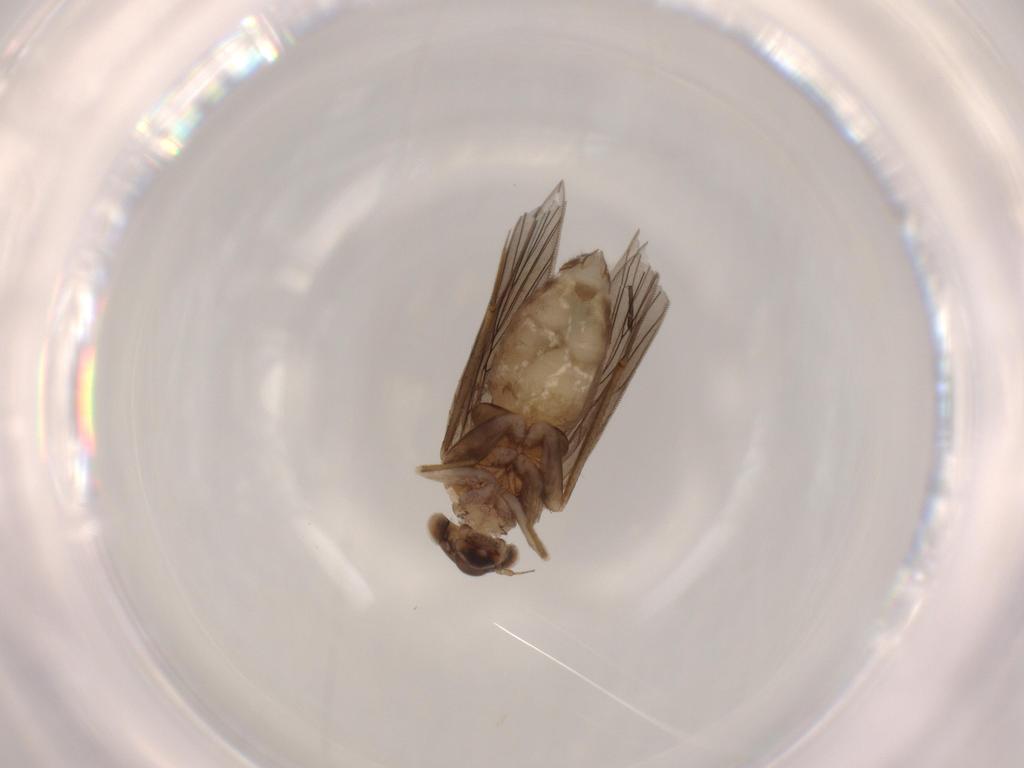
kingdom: Animalia
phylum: Arthropoda
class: Insecta
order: Psocodea
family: Lepidopsocidae
